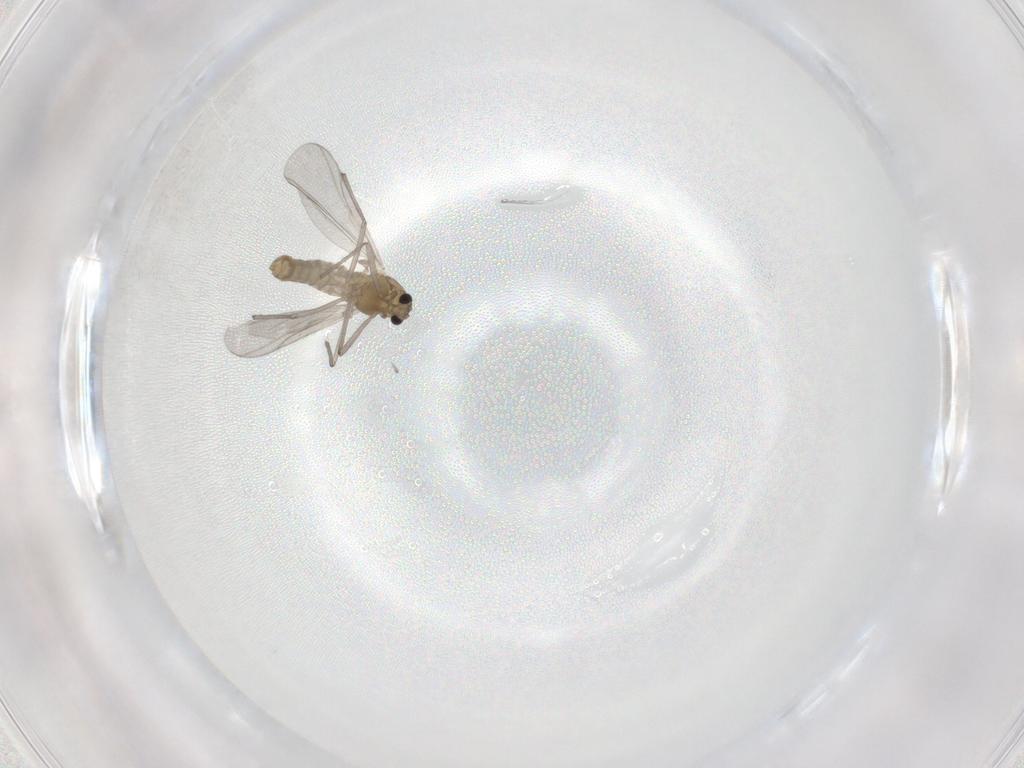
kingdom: Animalia
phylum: Arthropoda
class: Insecta
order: Diptera
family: Chironomidae
